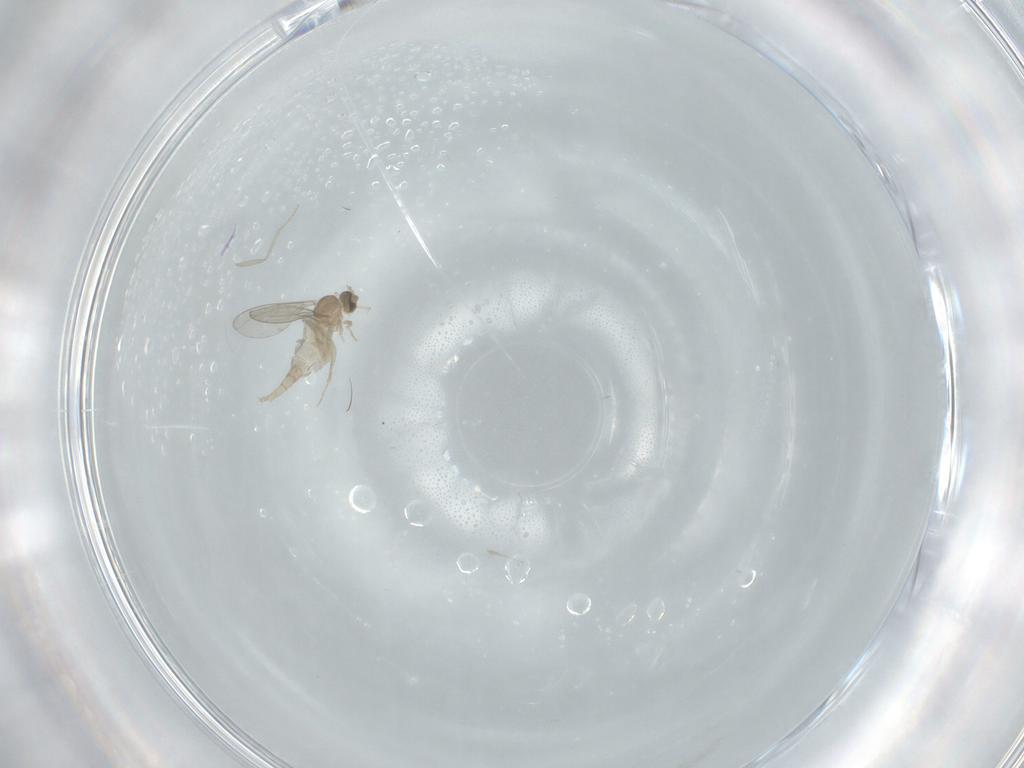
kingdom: Animalia
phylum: Arthropoda
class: Insecta
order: Diptera
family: Cecidomyiidae
